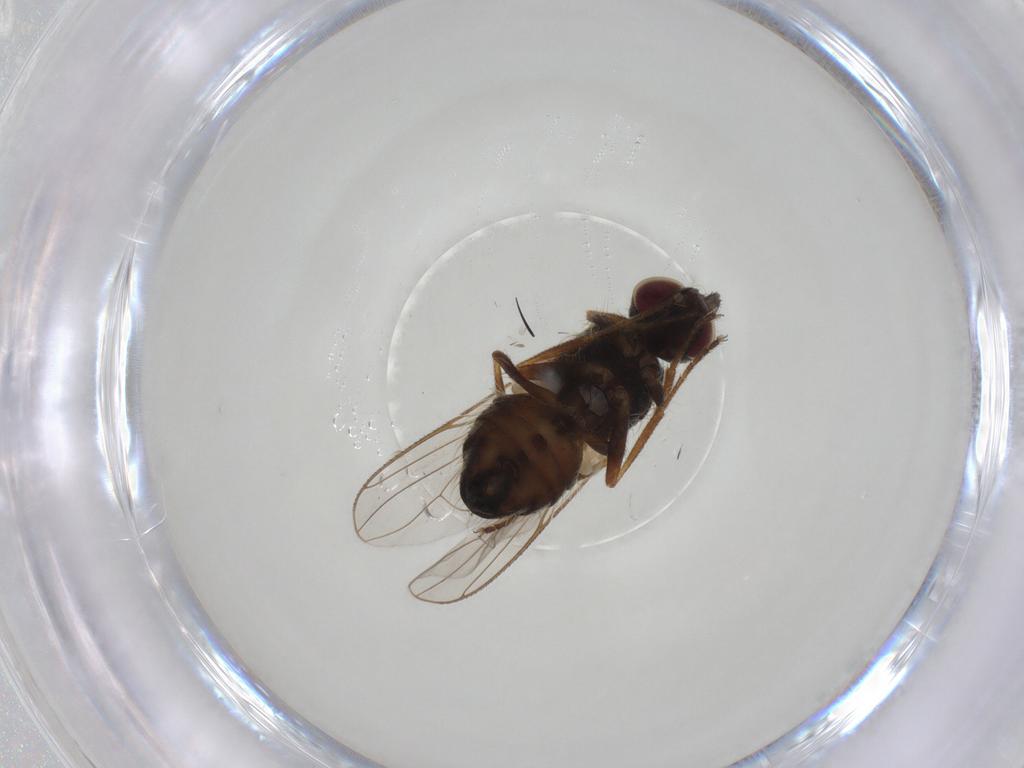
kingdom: Animalia
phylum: Arthropoda
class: Insecta
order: Diptera
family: Muscidae
